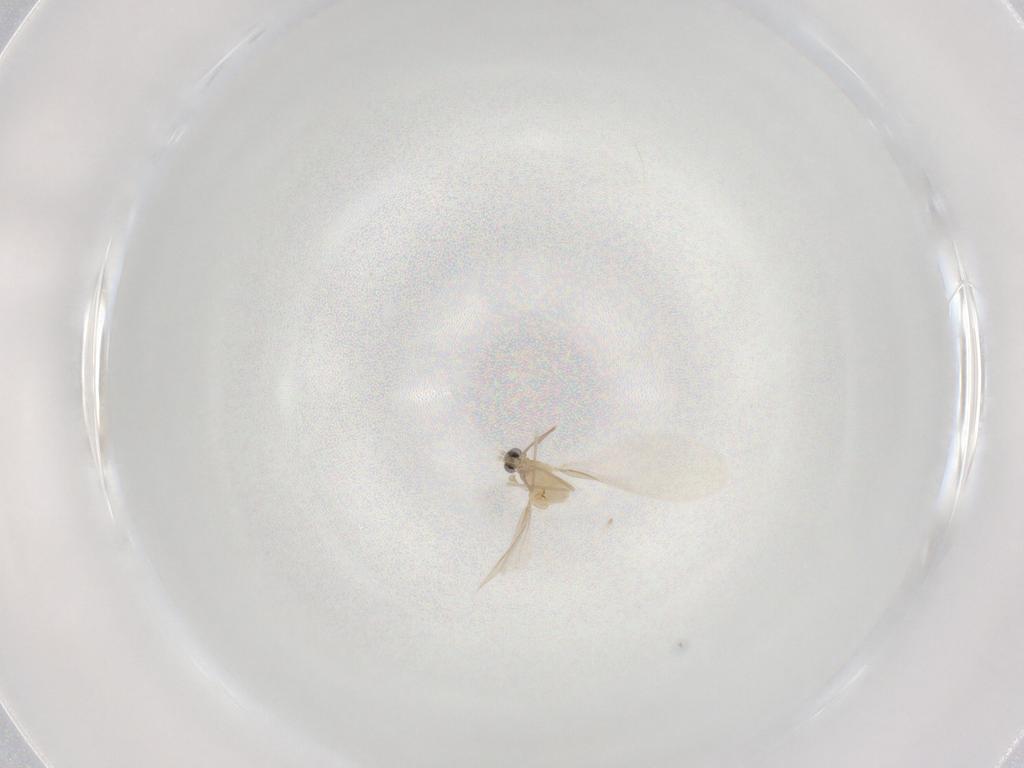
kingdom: Animalia
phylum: Arthropoda
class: Insecta
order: Diptera
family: Cecidomyiidae
